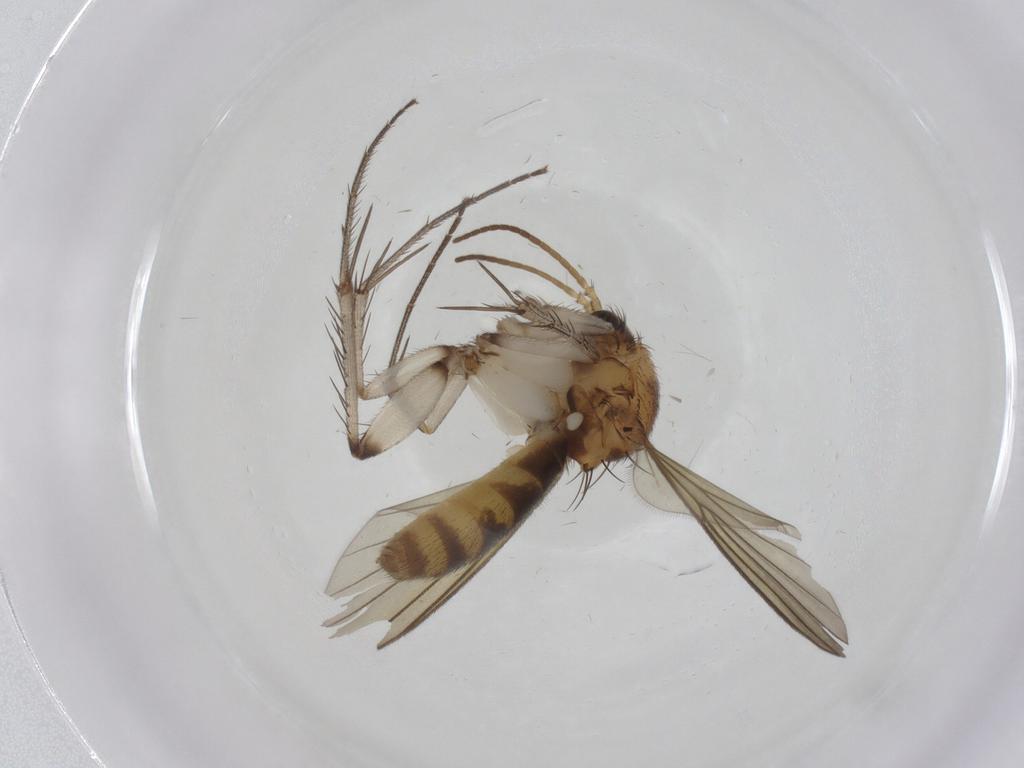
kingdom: Animalia
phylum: Arthropoda
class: Insecta
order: Diptera
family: Mycetophilidae
